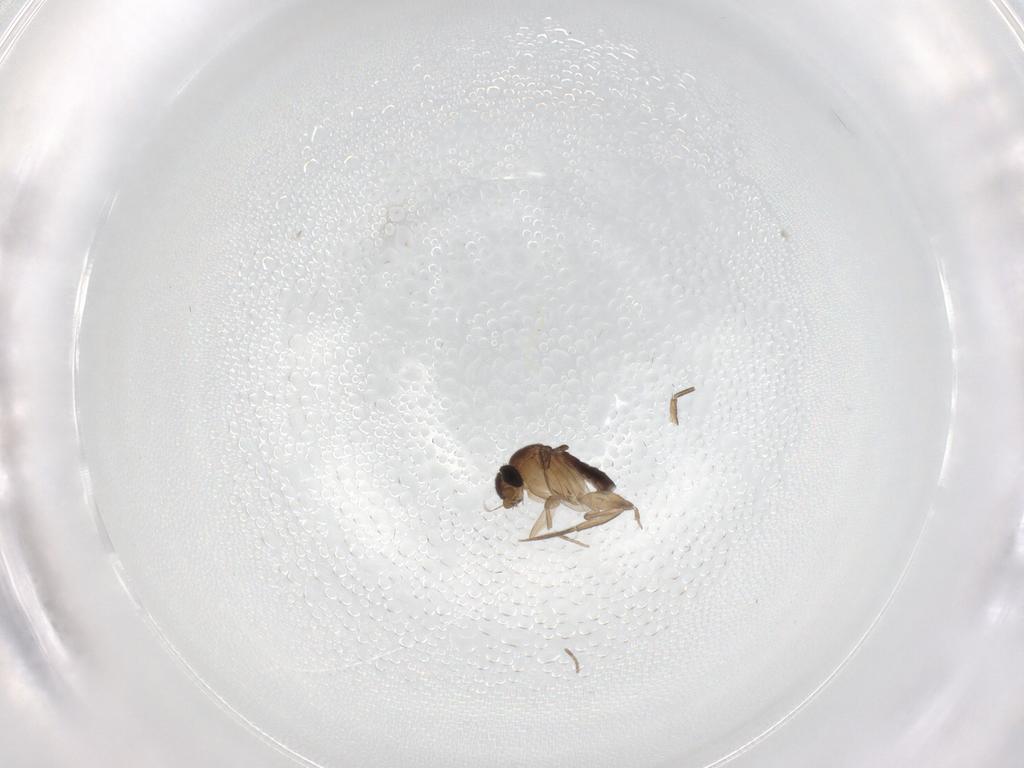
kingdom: Animalia
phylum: Arthropoda
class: Insecta
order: Diptera
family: Phoridae
